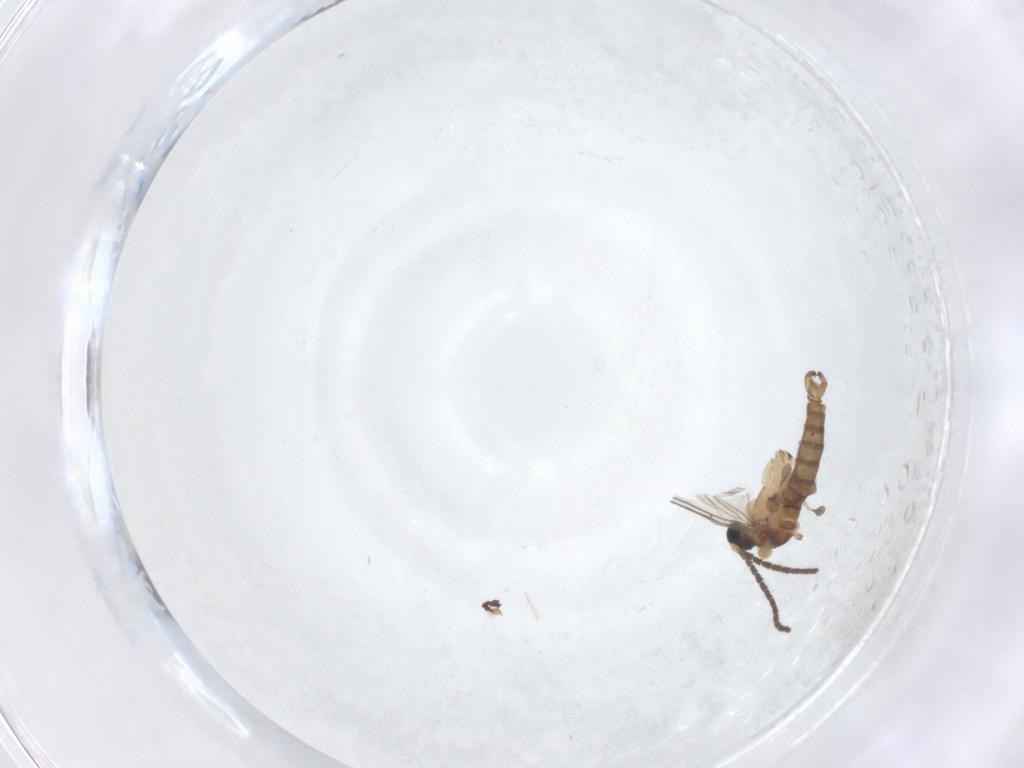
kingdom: Animalia
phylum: Arthropoda
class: Insecta
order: Diptera
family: Sciaridae
